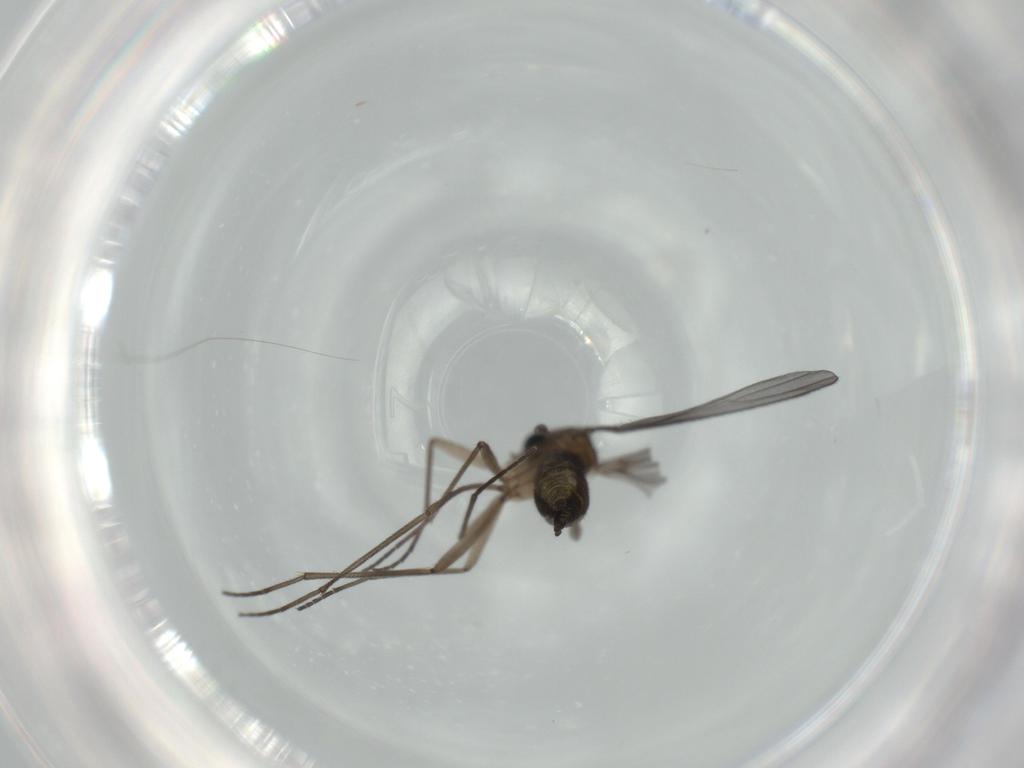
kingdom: Animalia
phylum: Arthropoda
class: Insecta
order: Diptera
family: Sciaridae
